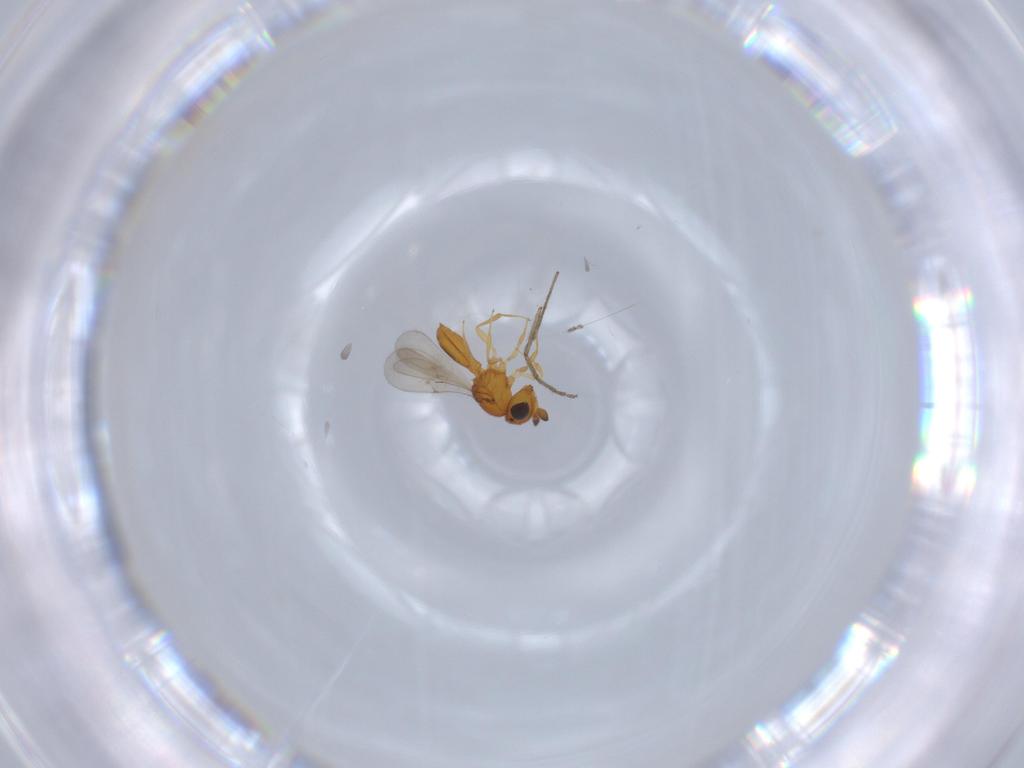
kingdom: Animalia
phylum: Arthropoda
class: Insecta
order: Hymenoptera
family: Scelionidae
